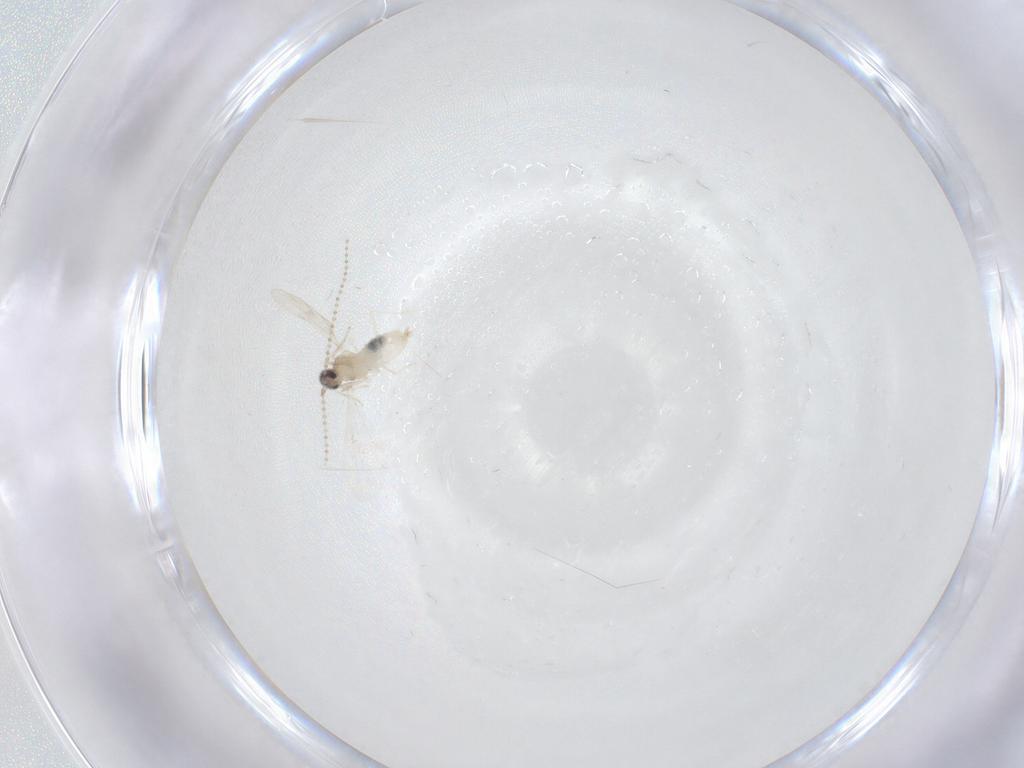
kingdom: Animalia
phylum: Arthropoda
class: Insecta
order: Diptera
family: Cecidomyiidae
